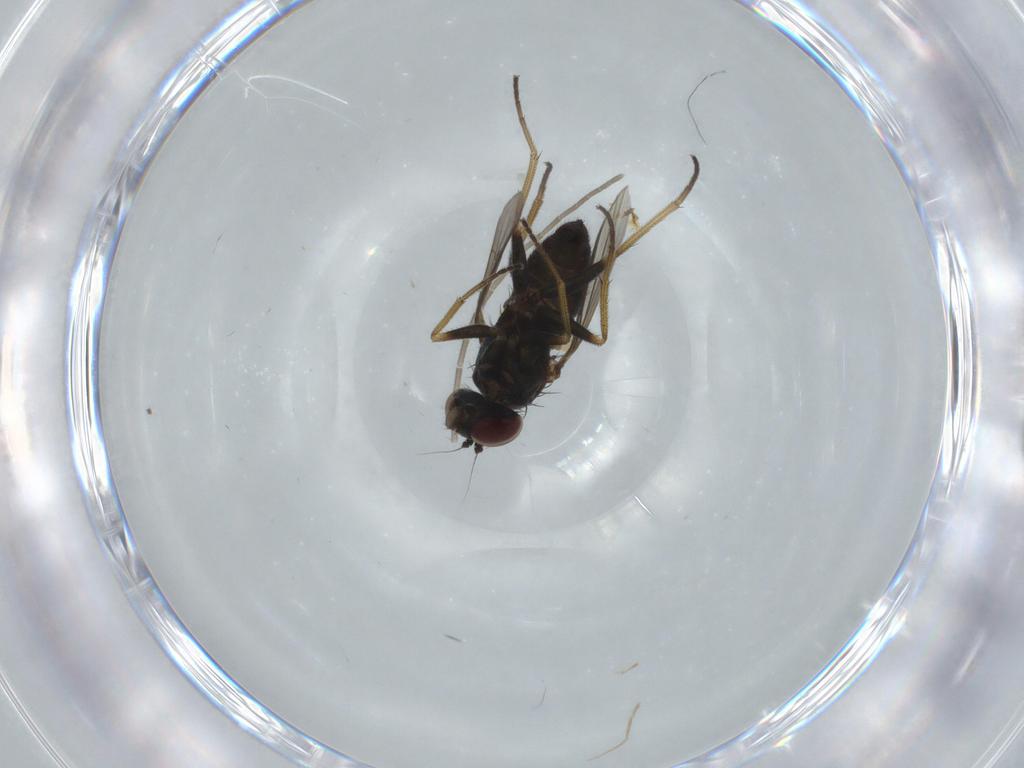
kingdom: Animalia
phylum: Arthropoda
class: Insecta
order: Diptera
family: Dolichopodidae
